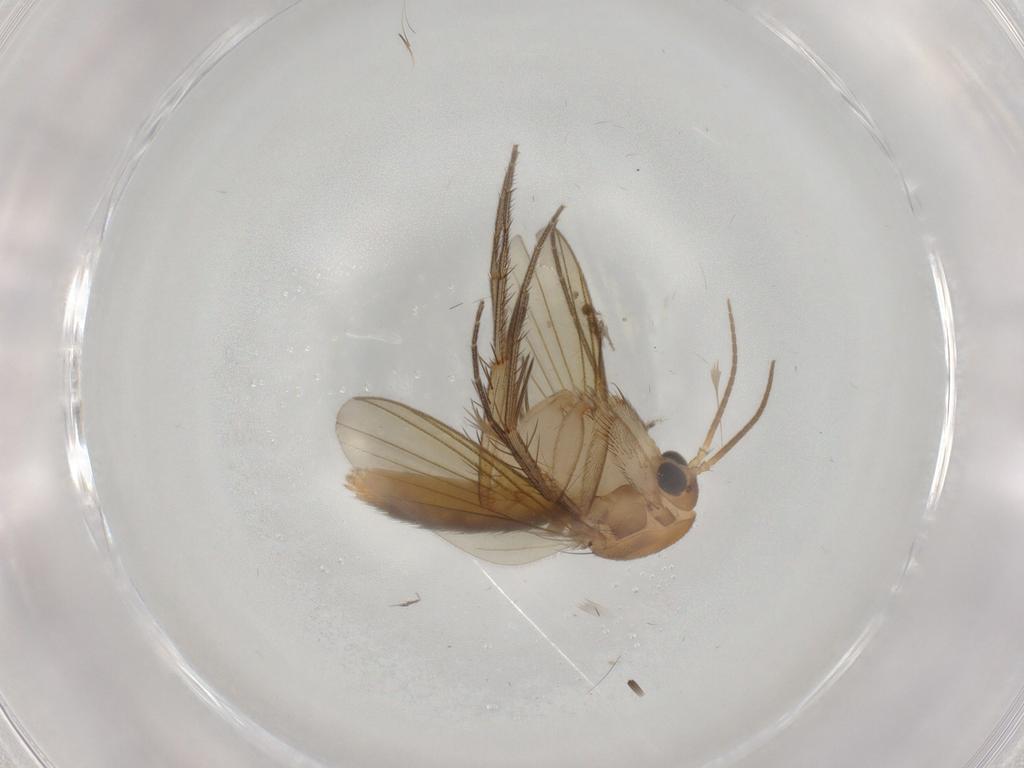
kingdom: Animalia
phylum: Arthropoda
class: Insecta
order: Diptera
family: Mycetophilidae
